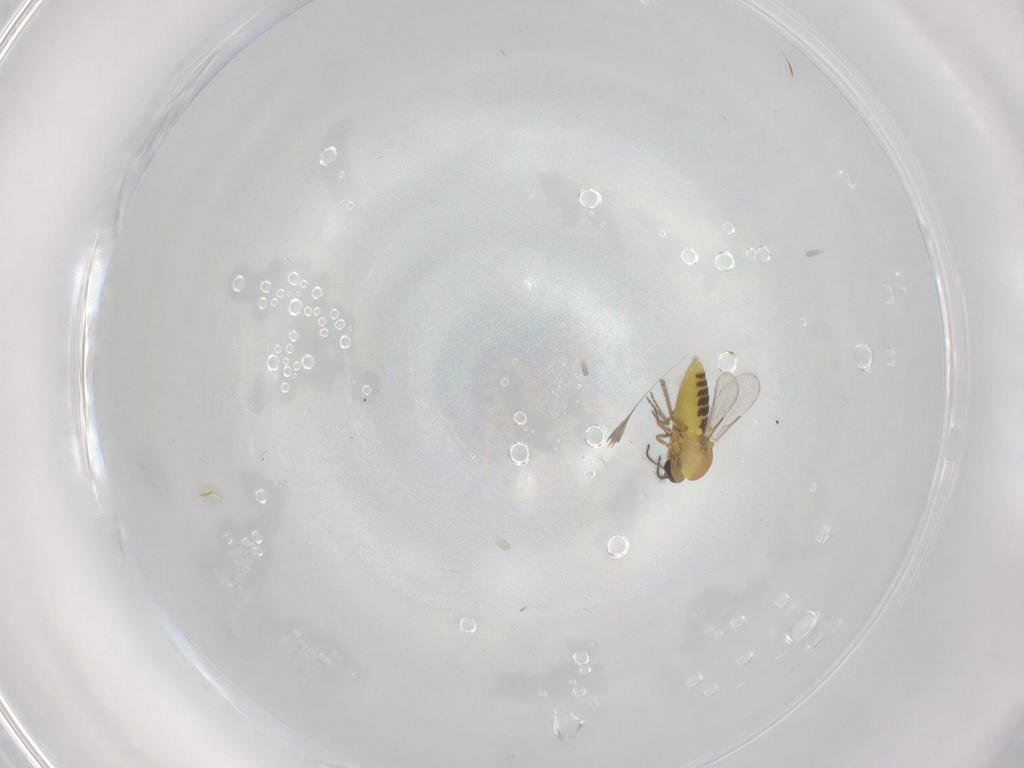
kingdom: Animalia
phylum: Arthropoda
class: Insecta
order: Diptera
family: Ceratopogonidae
